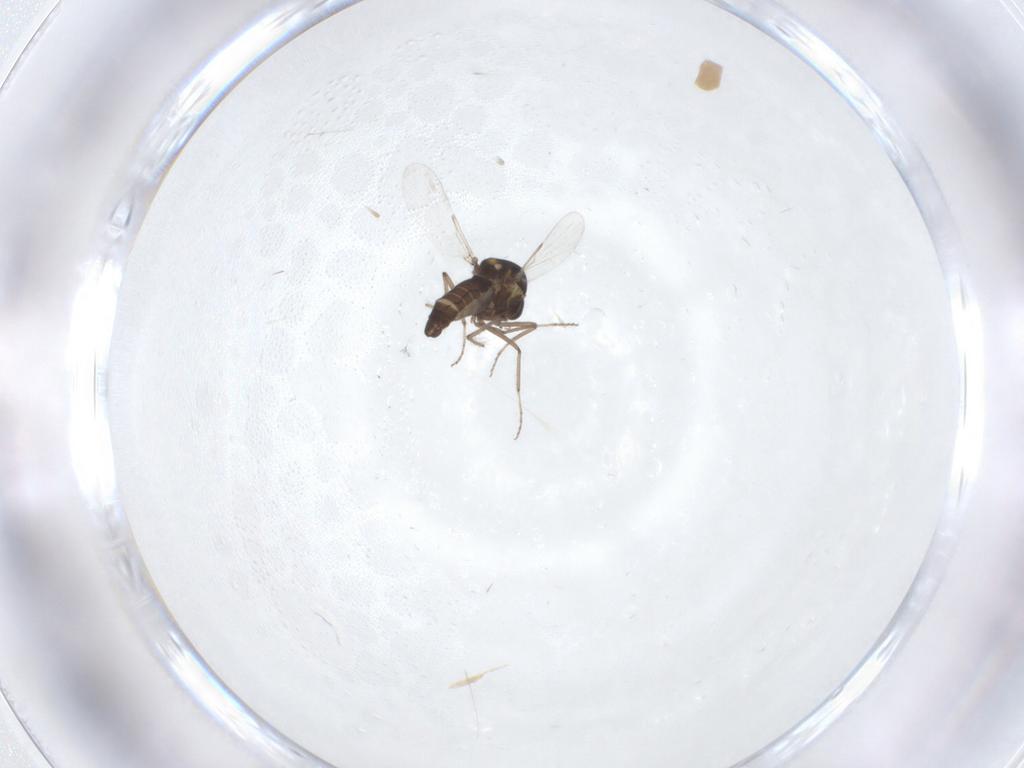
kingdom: Animalia
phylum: Arthropoda
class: Insecta
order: Diptera
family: Ceratopogonidae
